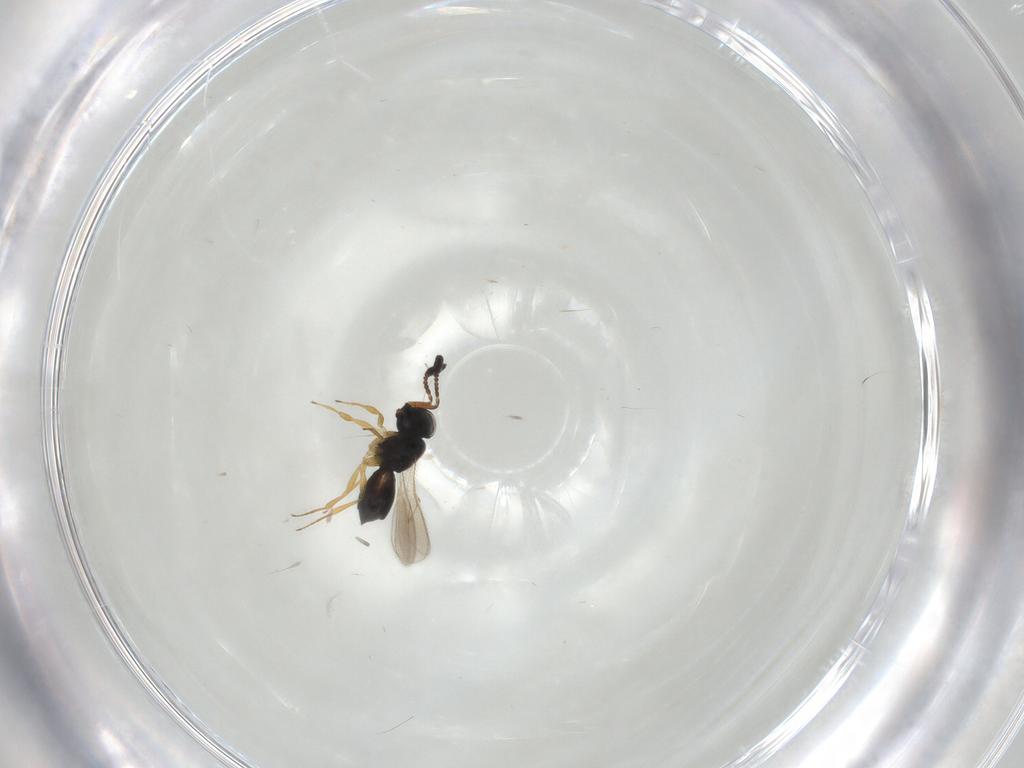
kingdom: Animalia
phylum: Arthropoda
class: Insecta
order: Hymenoptera
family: Scelionidae
